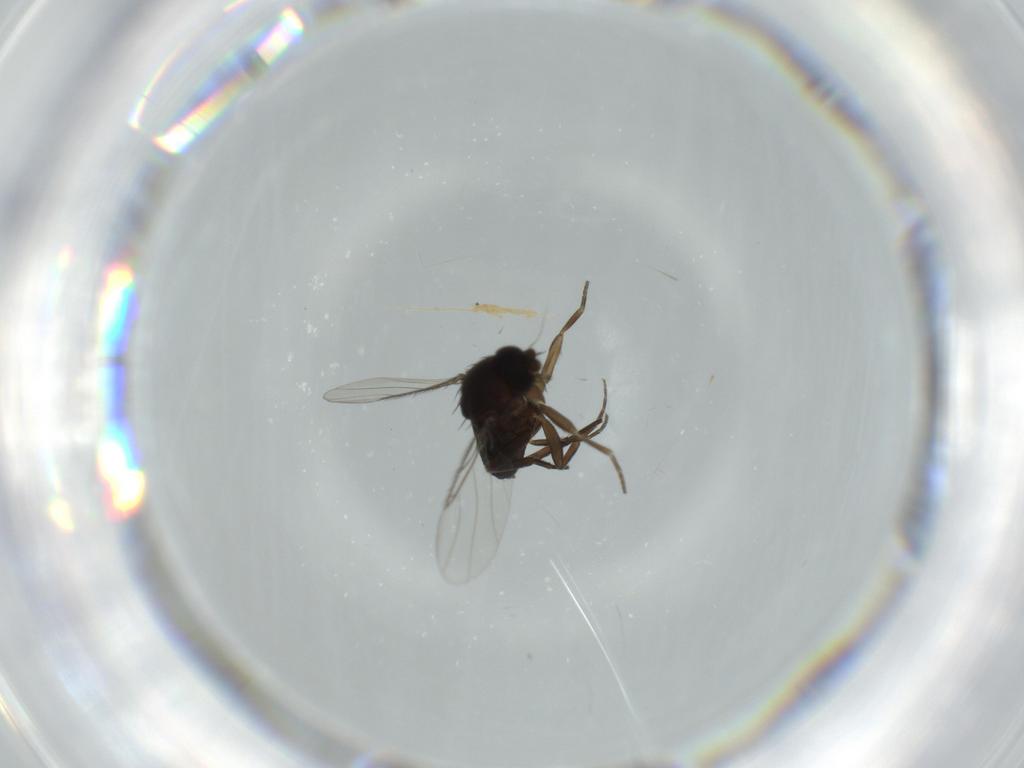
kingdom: Animalia
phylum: Arthropoda
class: Insecta
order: Diptera
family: Phoridae
